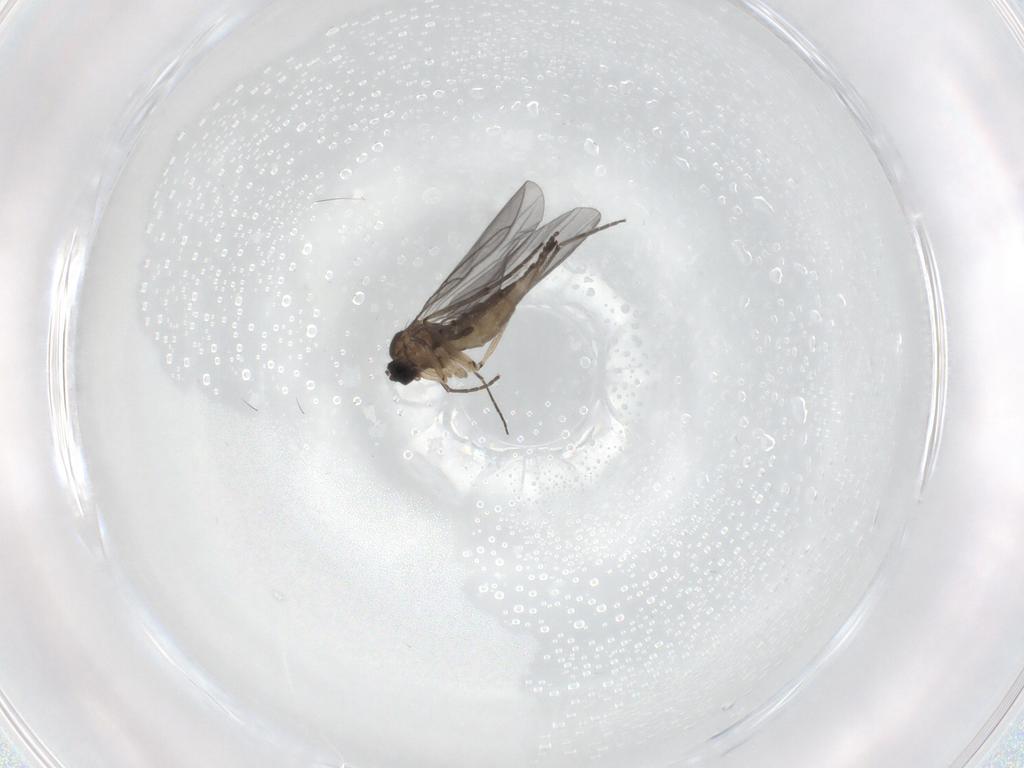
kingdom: Animalia
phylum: Arthropoda
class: Insecta
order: Diptera
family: Sciaridae
